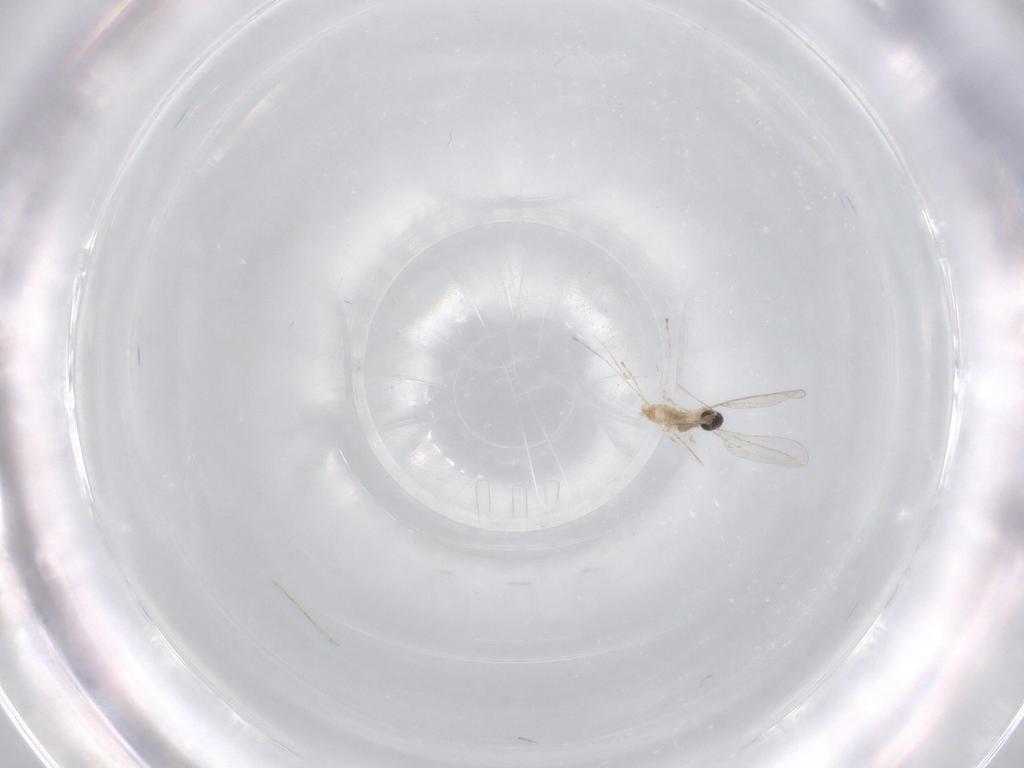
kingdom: Animalia
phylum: Arthropoda
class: Insecta
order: Diptera
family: Cecidomyiidae
